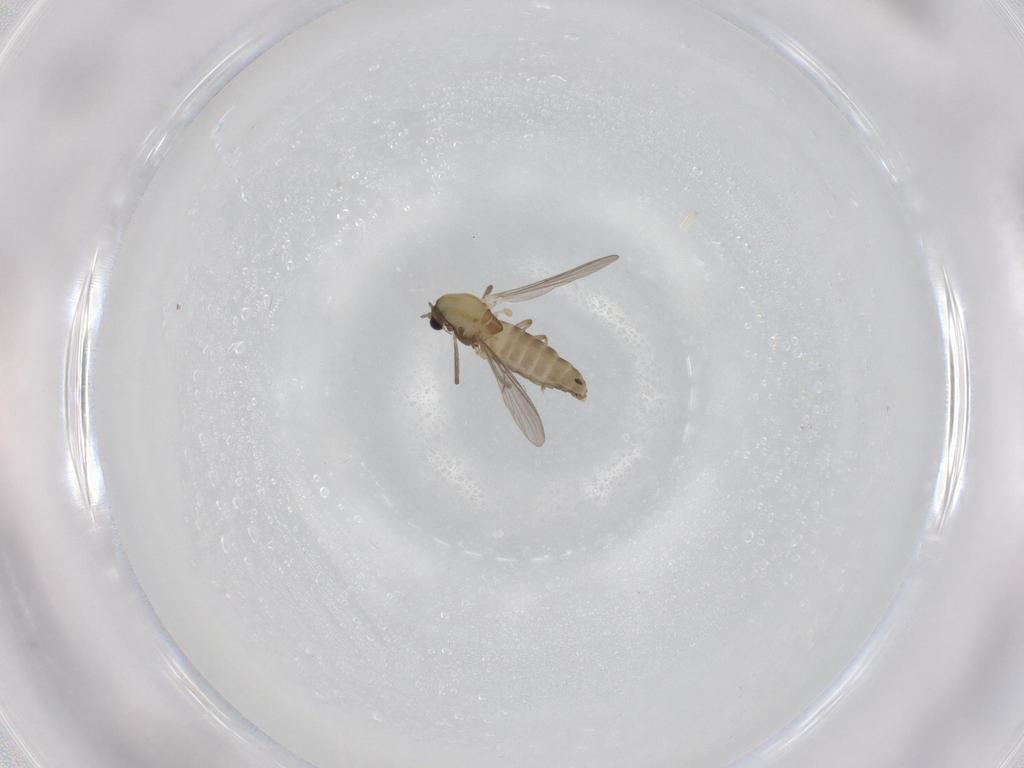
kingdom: Animalia
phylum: Arthropoda
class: Insecta
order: Diptera
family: Chironomidae
